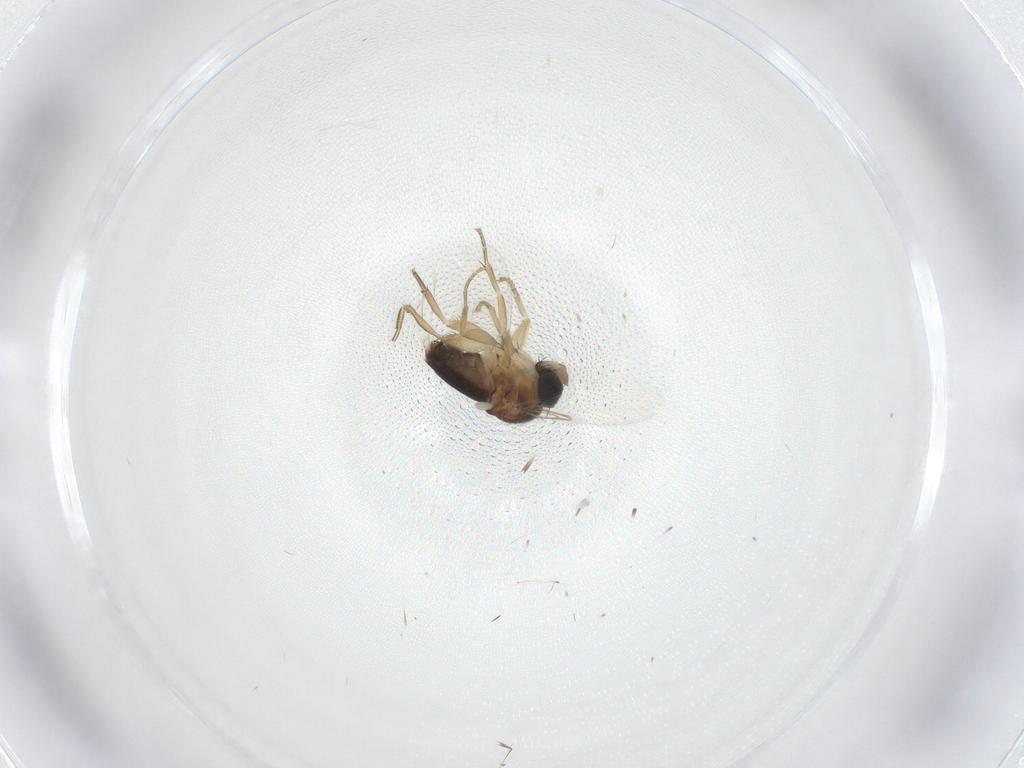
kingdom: Animalia
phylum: Arthropoda
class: Insecta
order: Diptera
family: Bombyliidae
